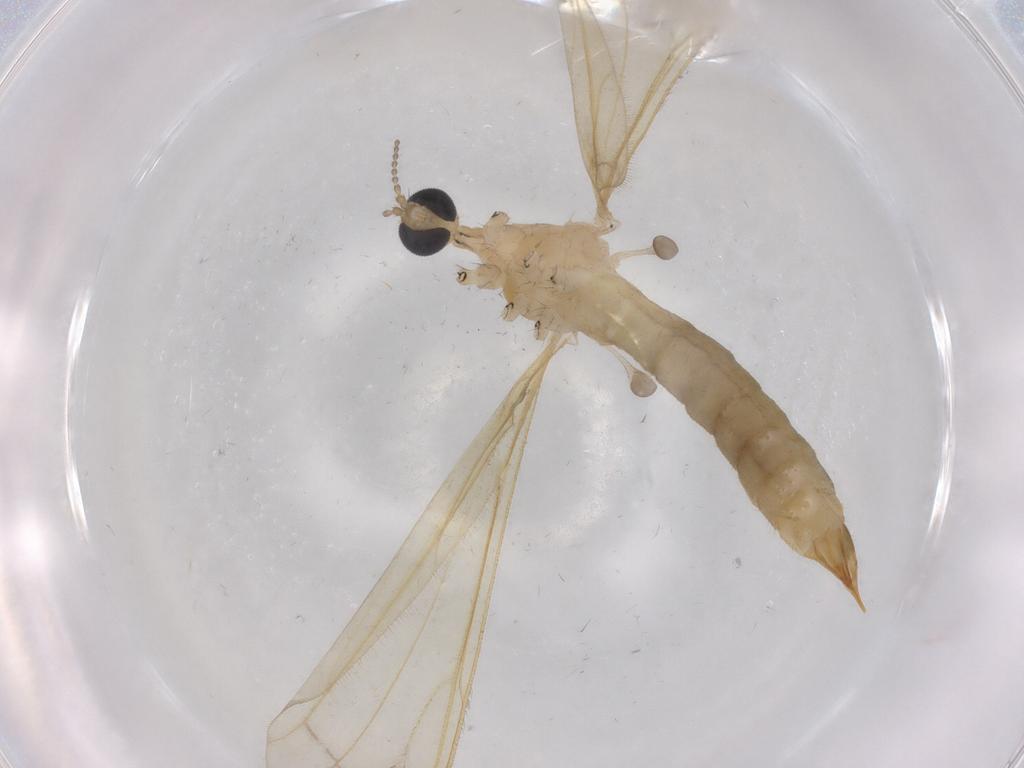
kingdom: Animalia
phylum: Arthropoda
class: Insecta
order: Diptera
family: Limoniidae
